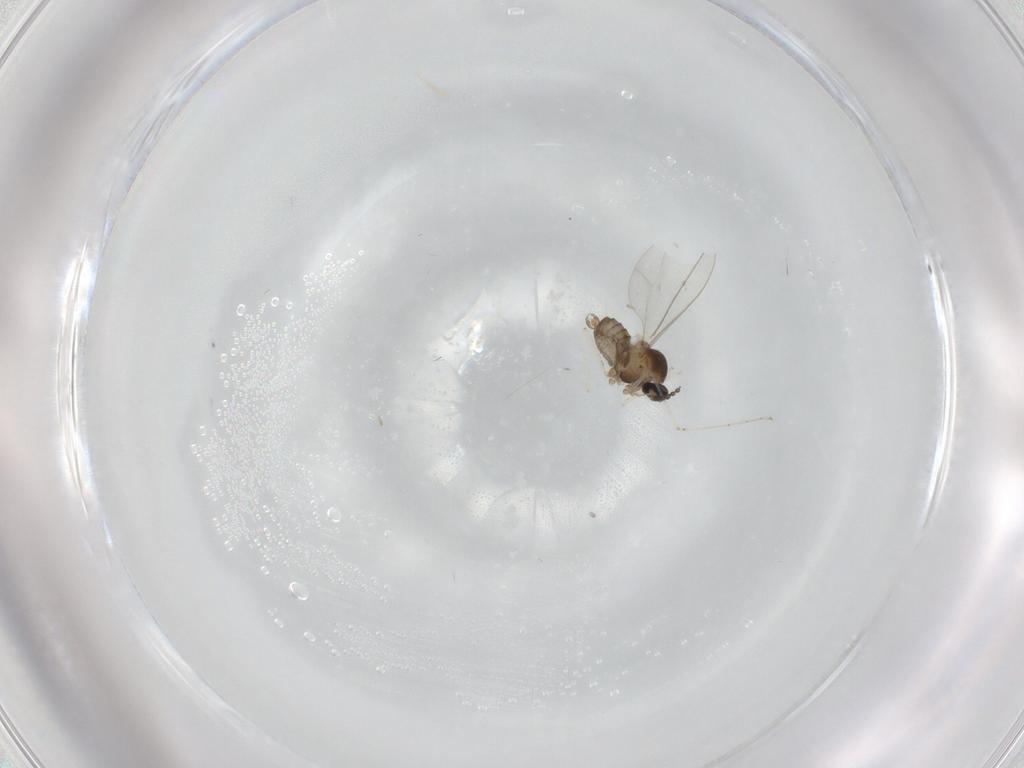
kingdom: Animalia
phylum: Arthropoda
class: Insecta
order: Diptera
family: Cecidomyiidae
